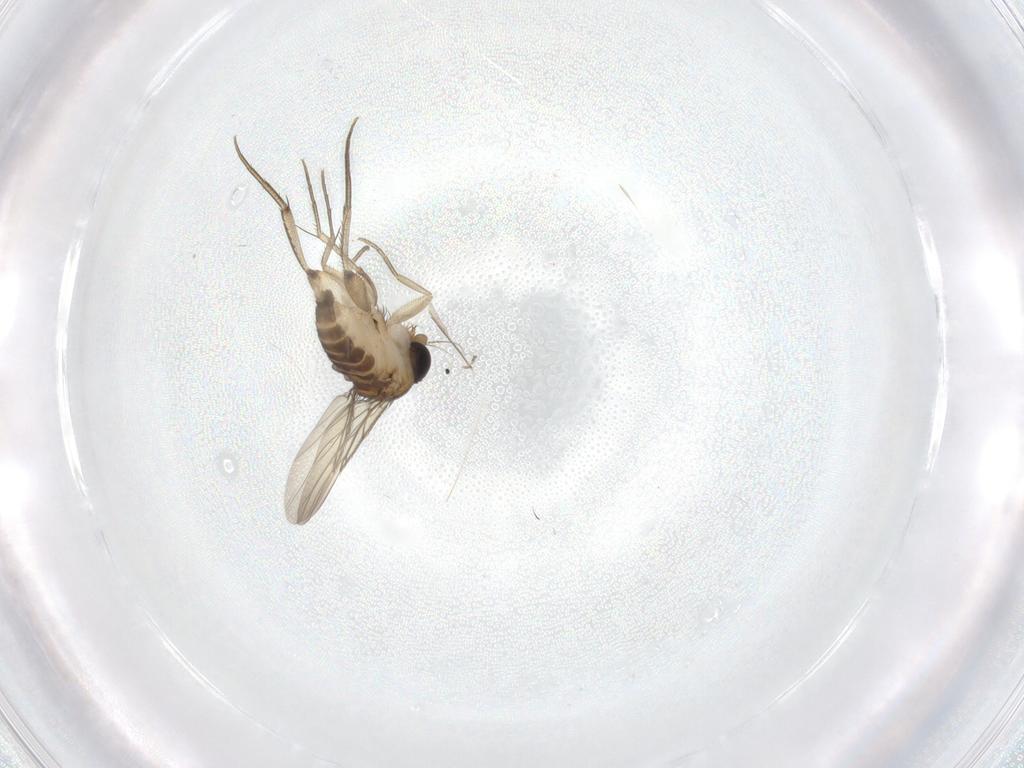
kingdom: Animalia
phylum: Arthropoda
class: Insecta
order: Diptera
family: Phoridae
